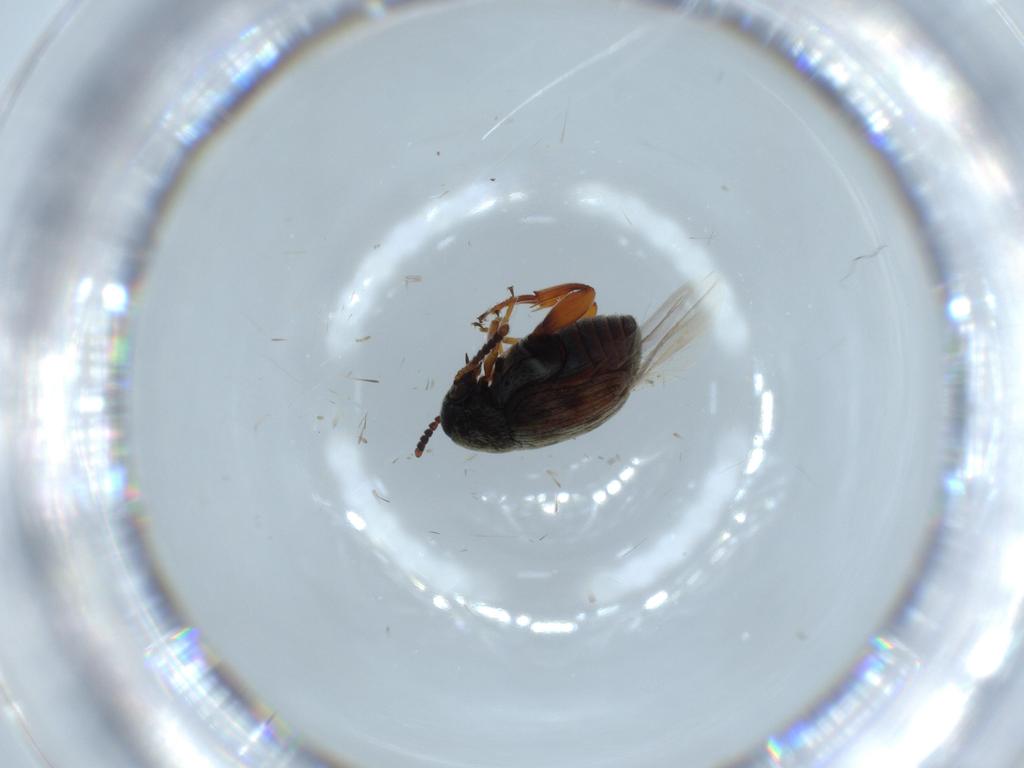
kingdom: Animalia
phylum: Arthropoda
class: Insecta
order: Coleoptera
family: Chrysomelidae
